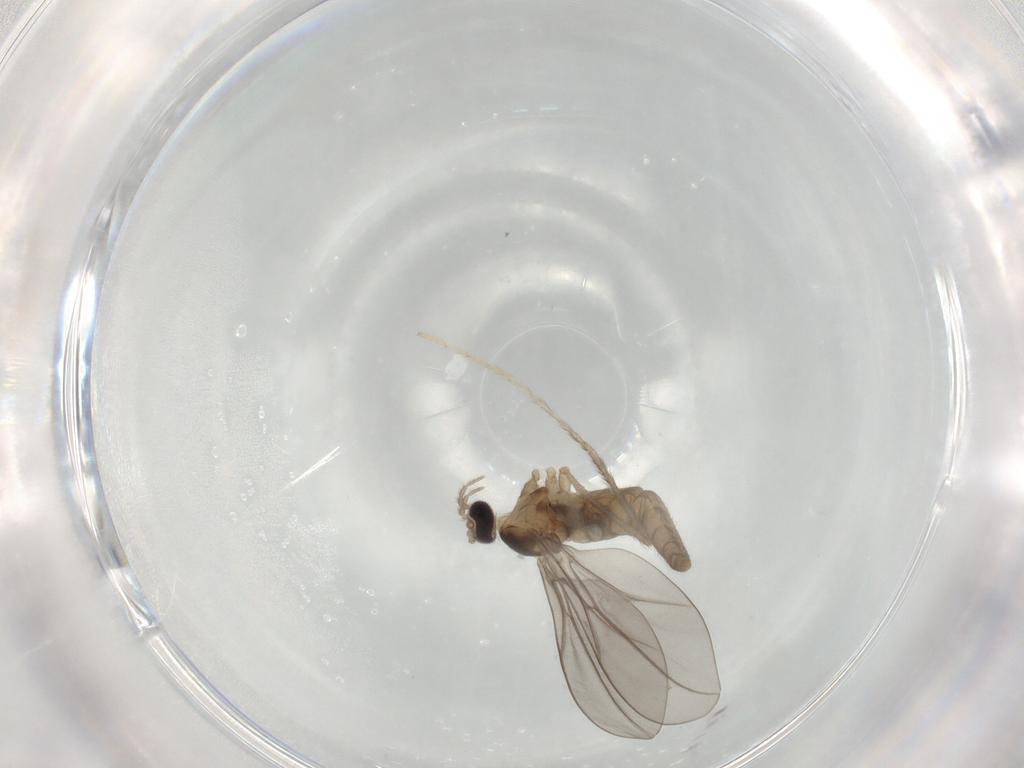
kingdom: Animalia
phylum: Arthropoda
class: Insecta
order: Diptera
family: Cecidomyiidae
